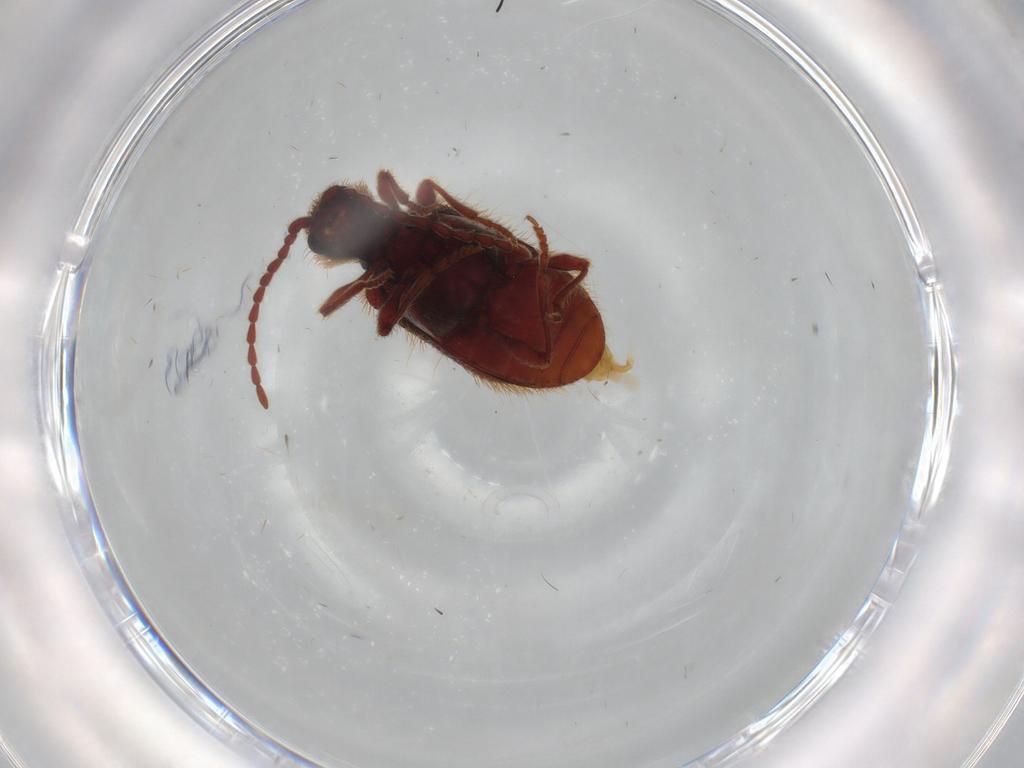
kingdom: Animalia
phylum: Arthropoda
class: Insecta
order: Coleoptera
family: Ptinidae
